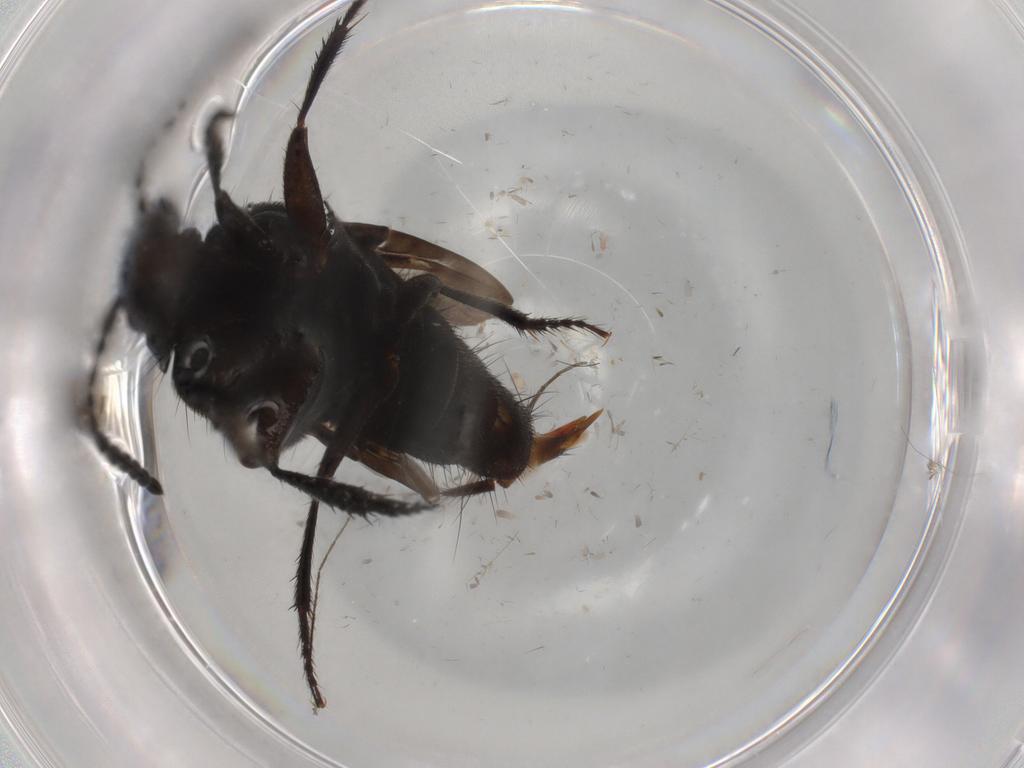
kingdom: Animalia
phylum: Arthropoda
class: Insecta
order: Coleoptera
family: Staphylinidae
